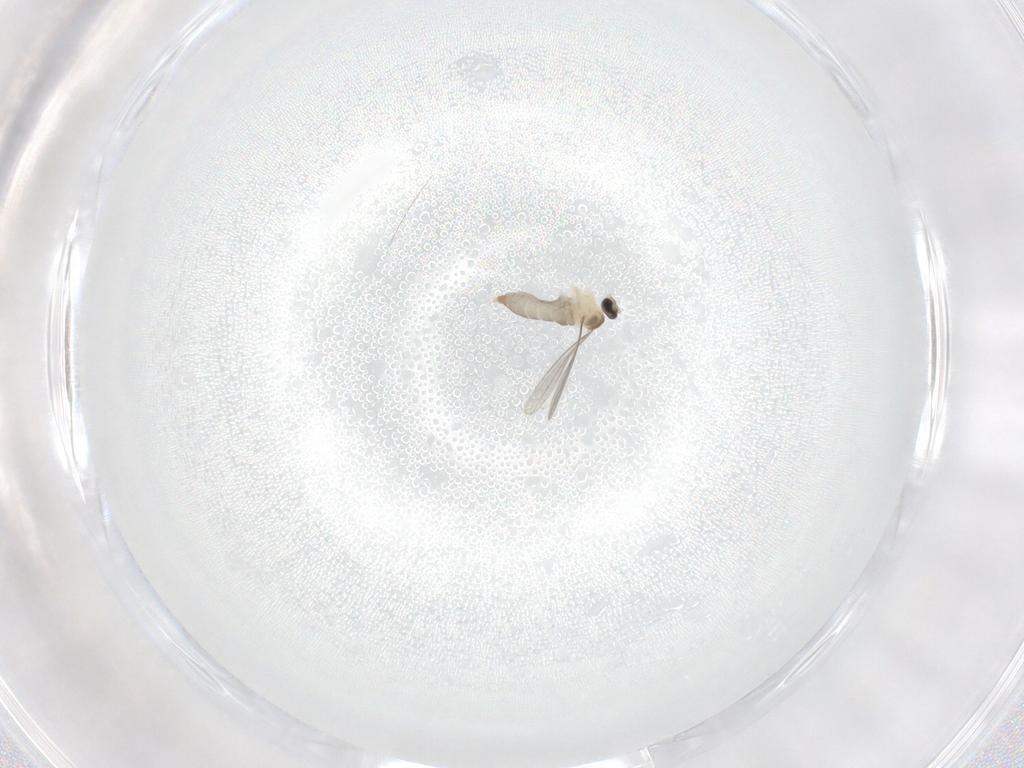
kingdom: Animalia
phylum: Arthropoda
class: Insecta
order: Diptera
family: Cecidomyiidae
